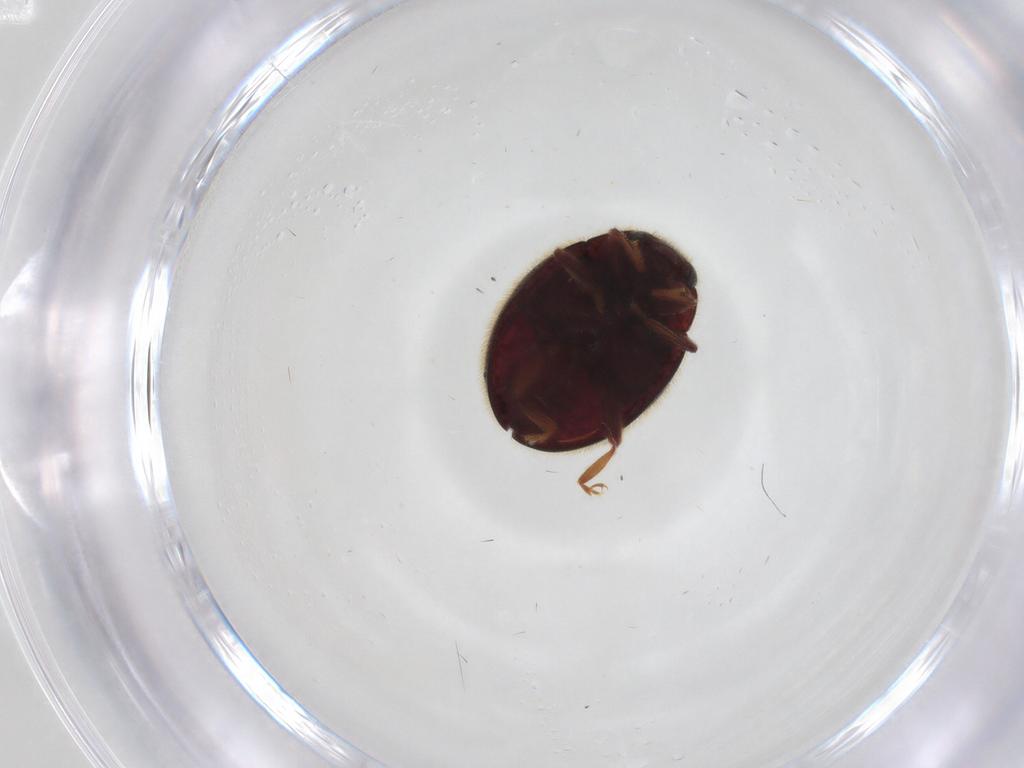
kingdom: Animalia
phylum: Arthropoda
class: Insecta
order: Coleoptera
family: Coccinellidae
